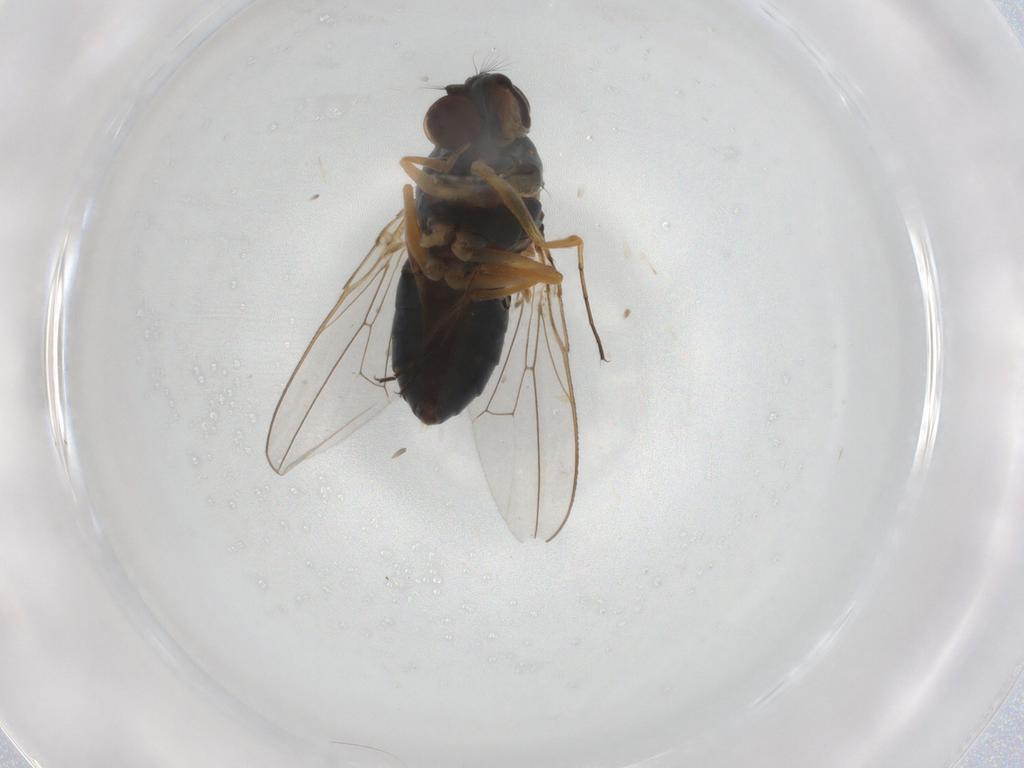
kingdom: Animalia
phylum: Arthropoda
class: Insecta
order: Diptera
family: Ephydridae
